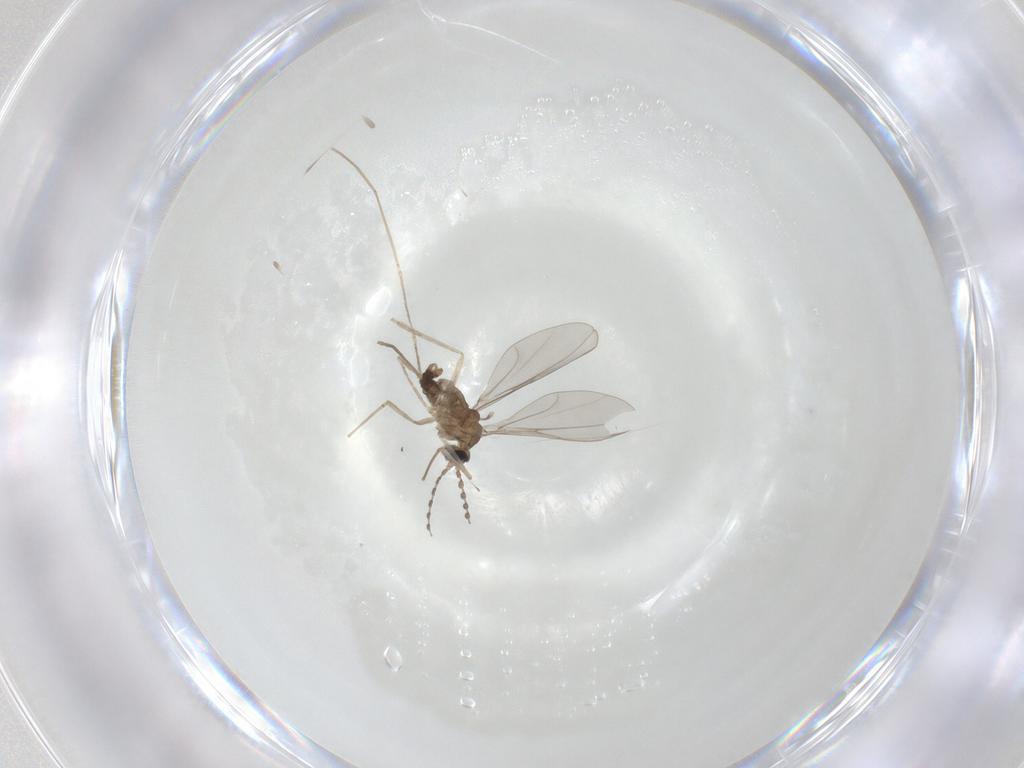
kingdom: Animalia
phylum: Arthropoda
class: Insecta
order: Diptera
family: Cecidomyiidae
